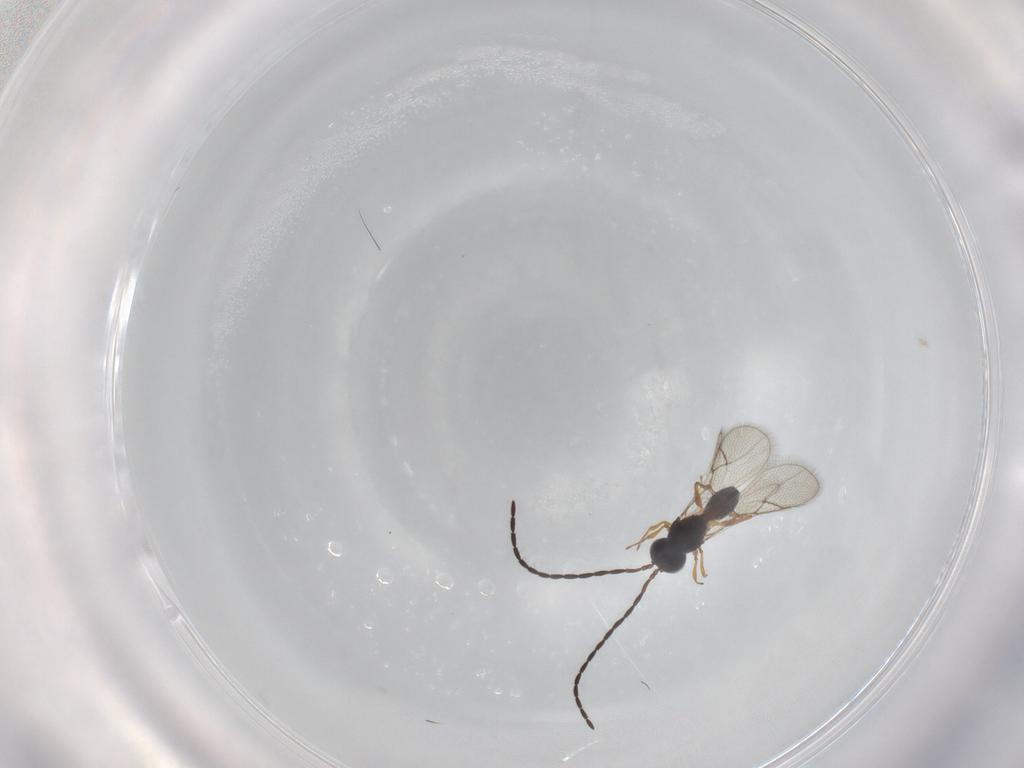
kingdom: Animalia
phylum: Arthropoda
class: Insecta
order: Hymenoptera
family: Figitidae
